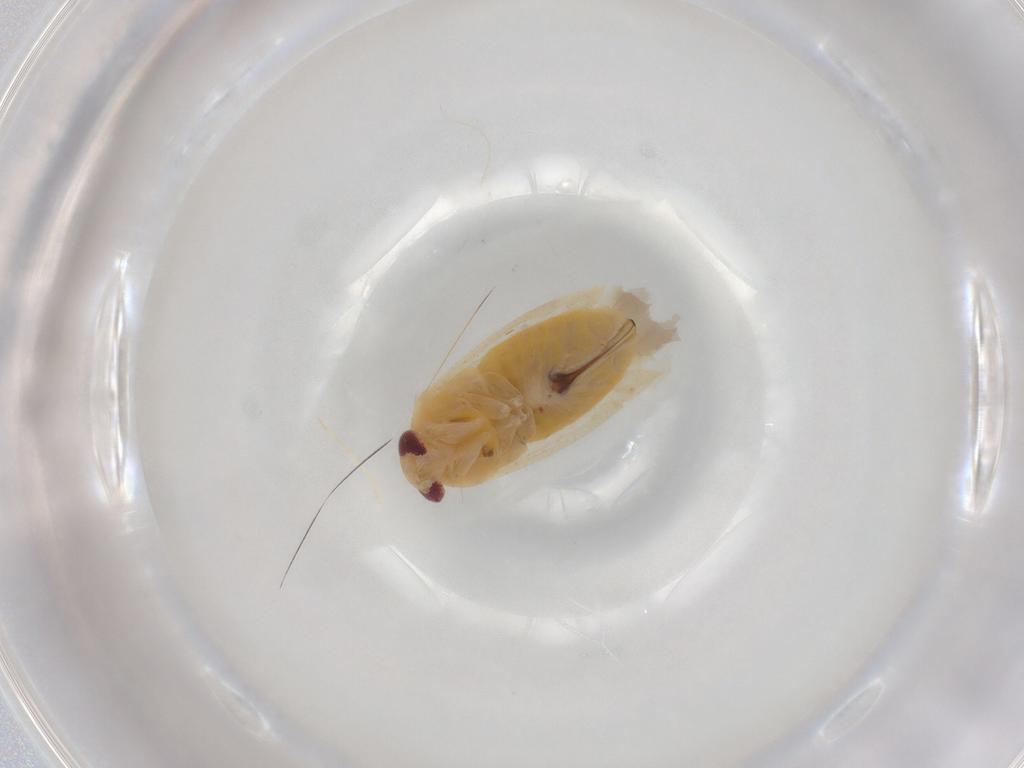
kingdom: Animalia
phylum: Arthropoda
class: Insecta
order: Hemiptera
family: Miridae
